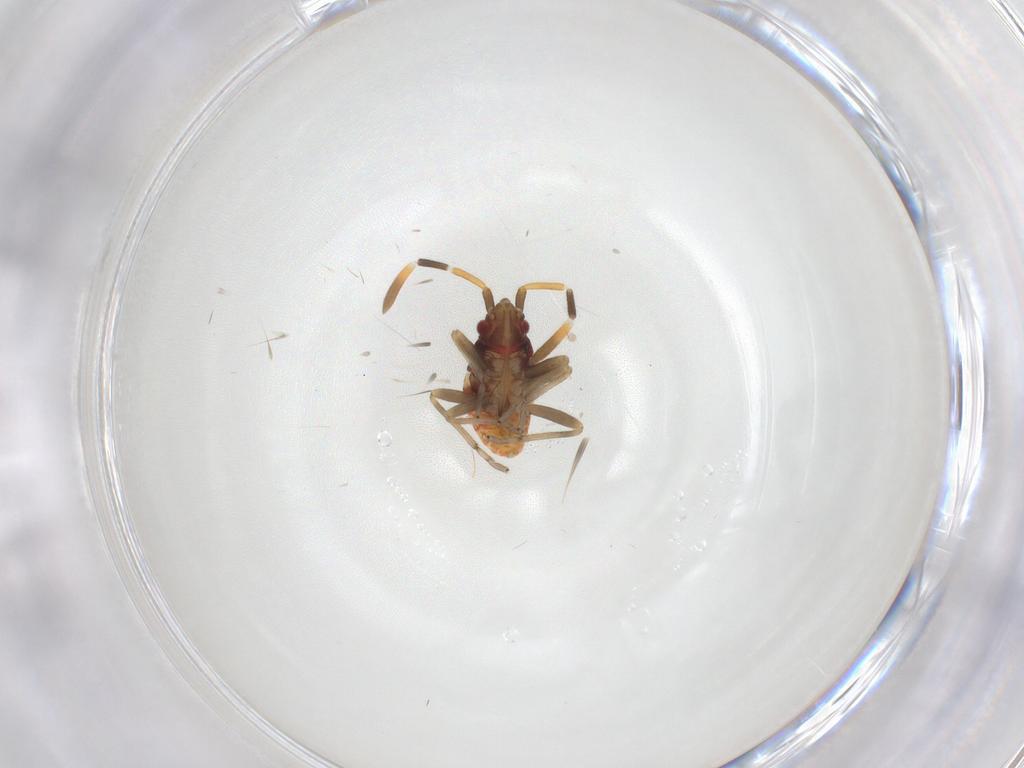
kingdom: Animalia
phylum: Arthropoda
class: Insecta
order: Hemiptera
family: Rhyparochromidae
